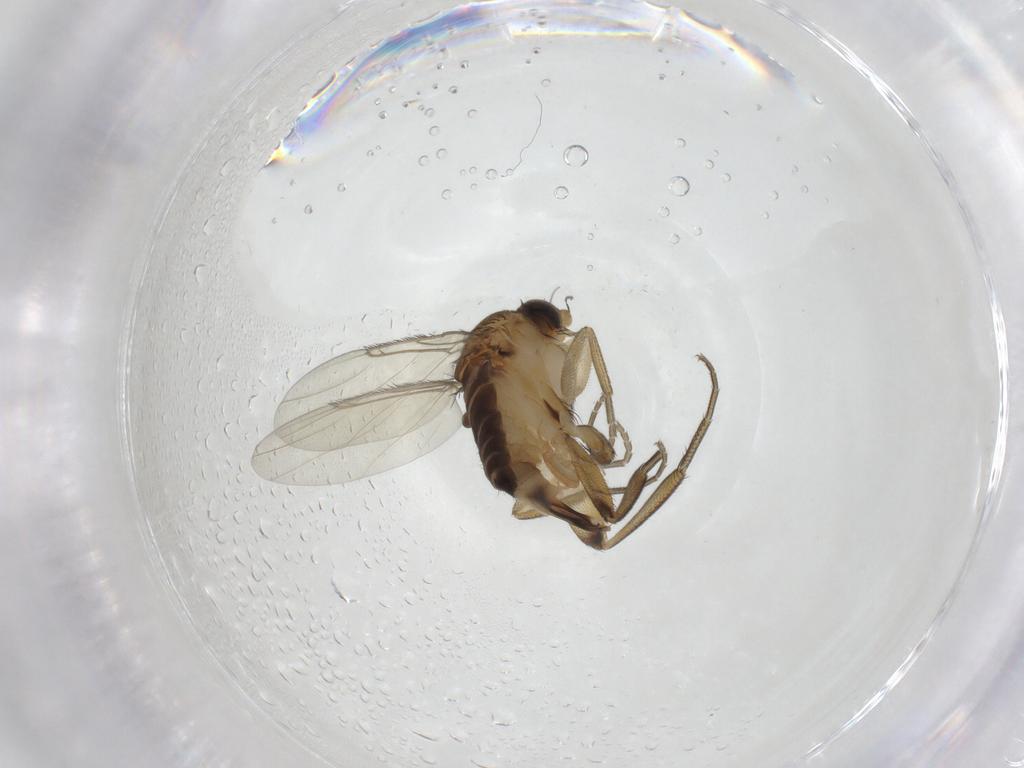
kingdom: Animalia
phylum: Arthropoda
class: Insecta
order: Diptera
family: Phoridae
